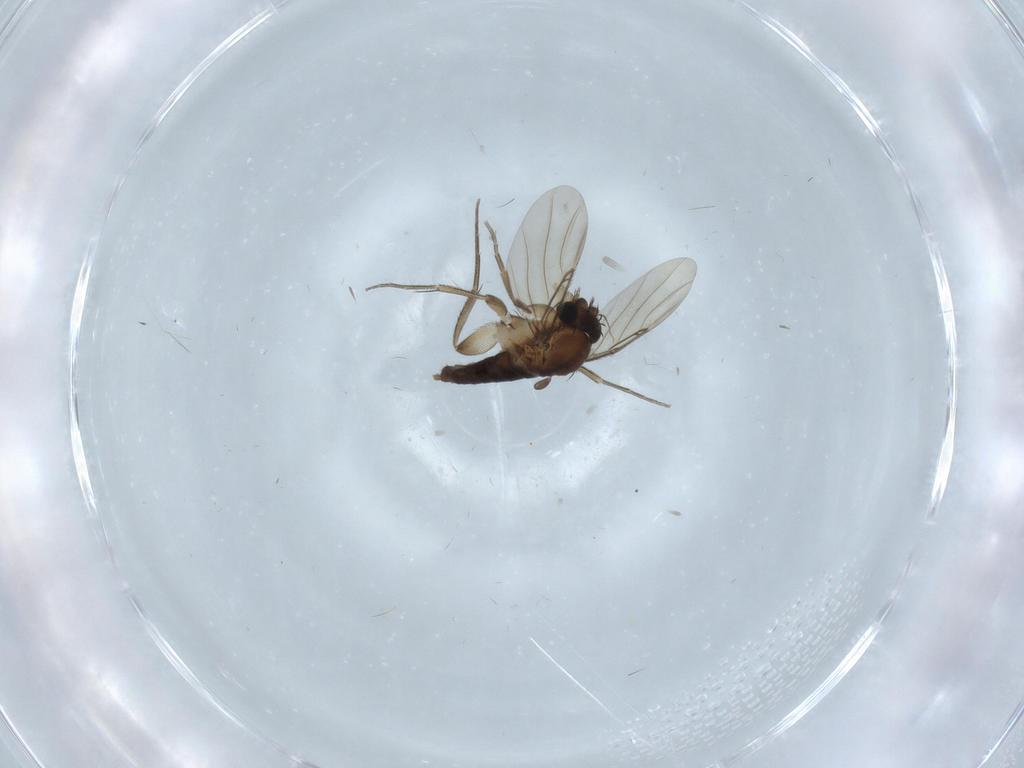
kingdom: Animalia
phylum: Arthropoda
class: Insecta
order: Diptera
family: Phoridae
